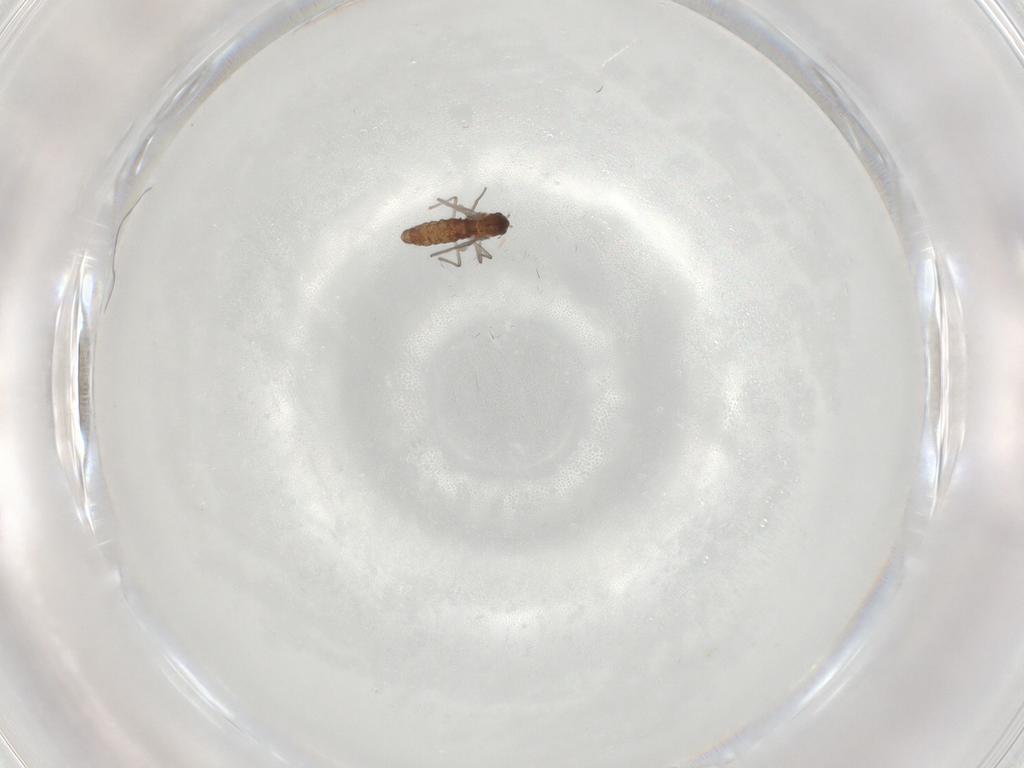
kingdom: Animalia
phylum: Arthropoda
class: Insecta
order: Diptera
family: Chironomidae
